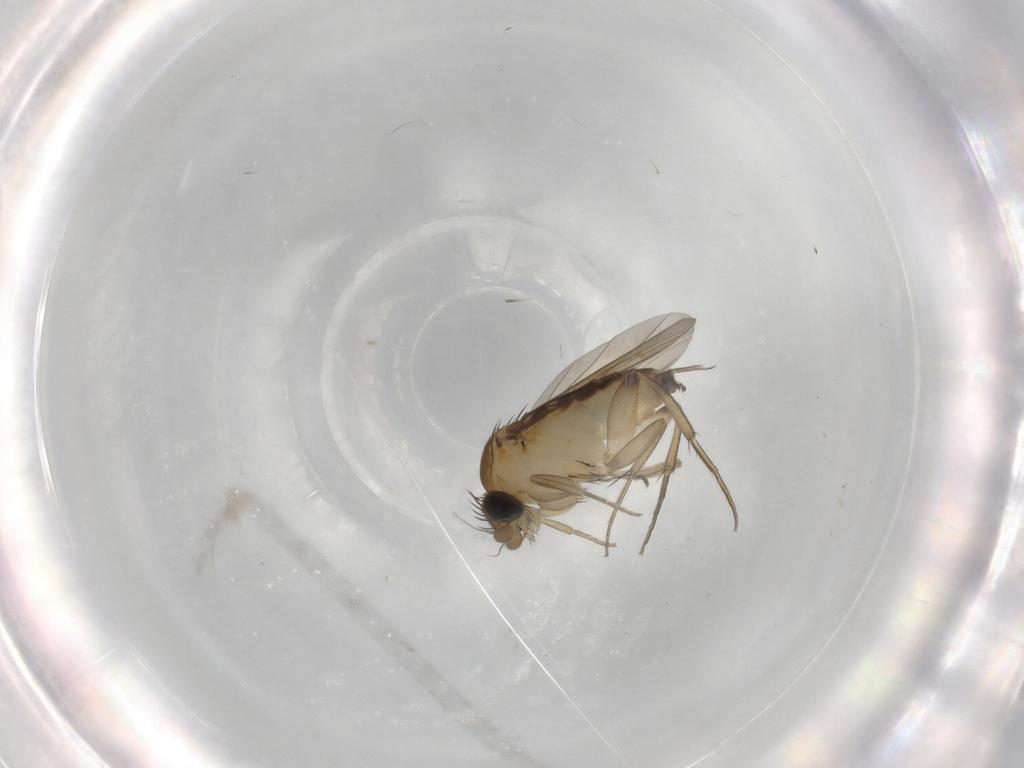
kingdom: Animalia
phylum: Arthropoda
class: Insecta
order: Diptera
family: Phoridae
